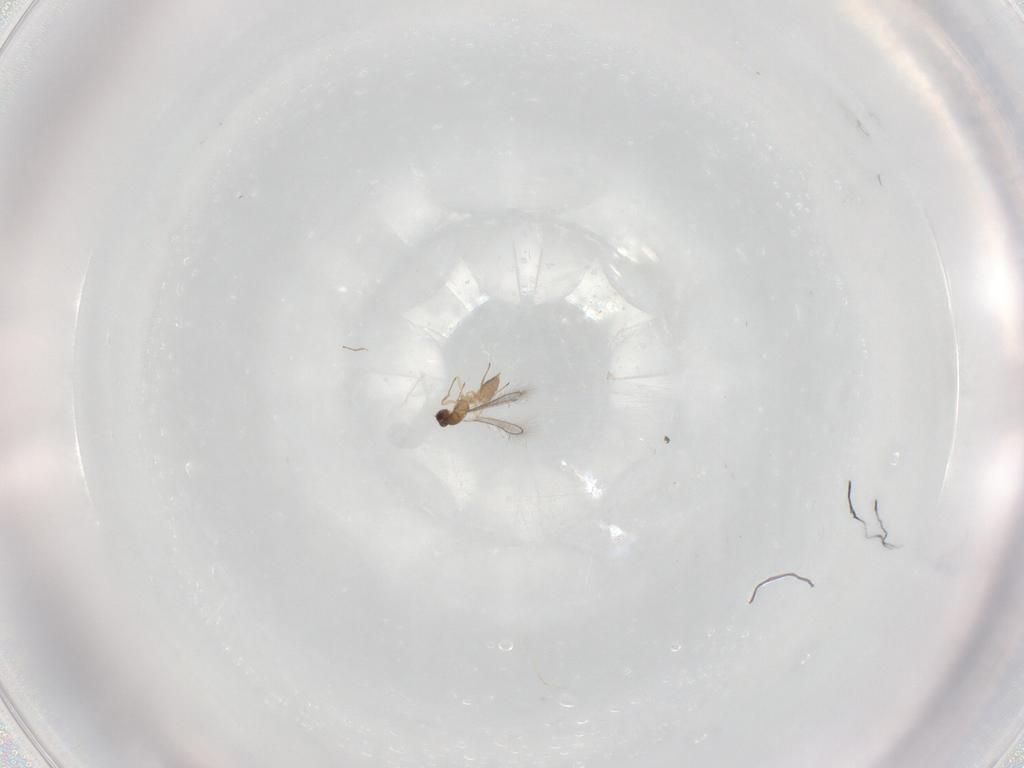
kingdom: Animalia
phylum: Arthropoda
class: Insecta
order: Hymenoptera
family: Mymaridae
